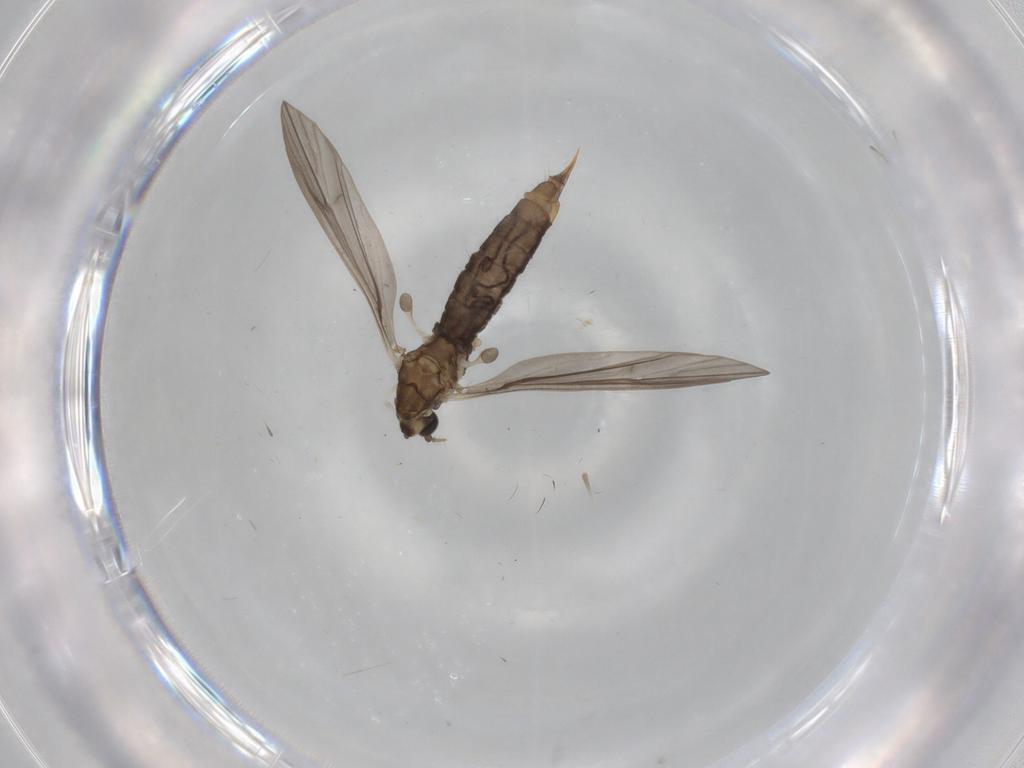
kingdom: Animalia
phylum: Arthropoda
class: Insecta
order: Diptera
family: Limoniidae
